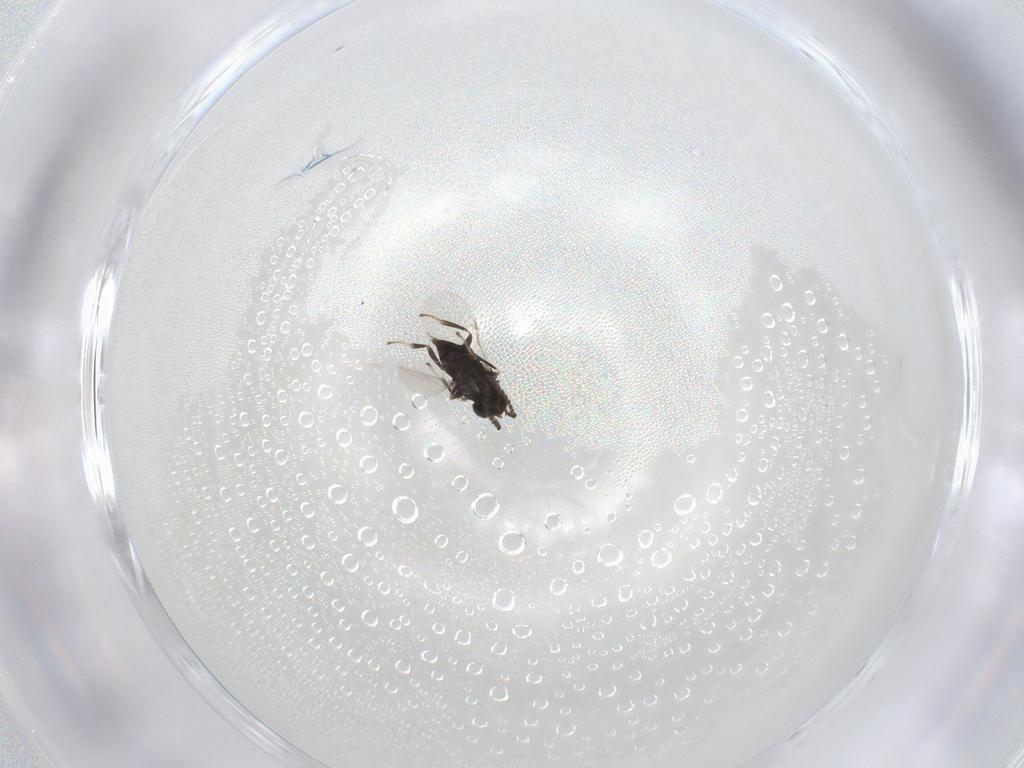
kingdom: Animalia
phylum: Arthropoda
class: Insecta
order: Hymenoptera
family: Encyrtidae
